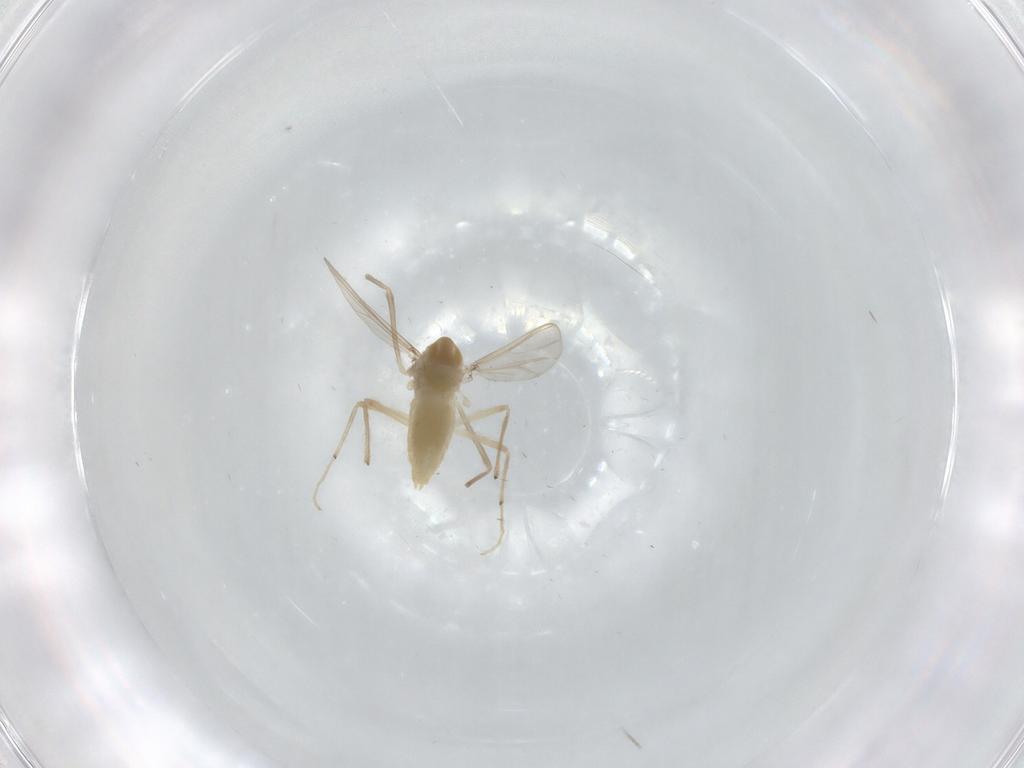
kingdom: Animalia
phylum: Arthropoda
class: Insecta
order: Diptera
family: Chironomidae
